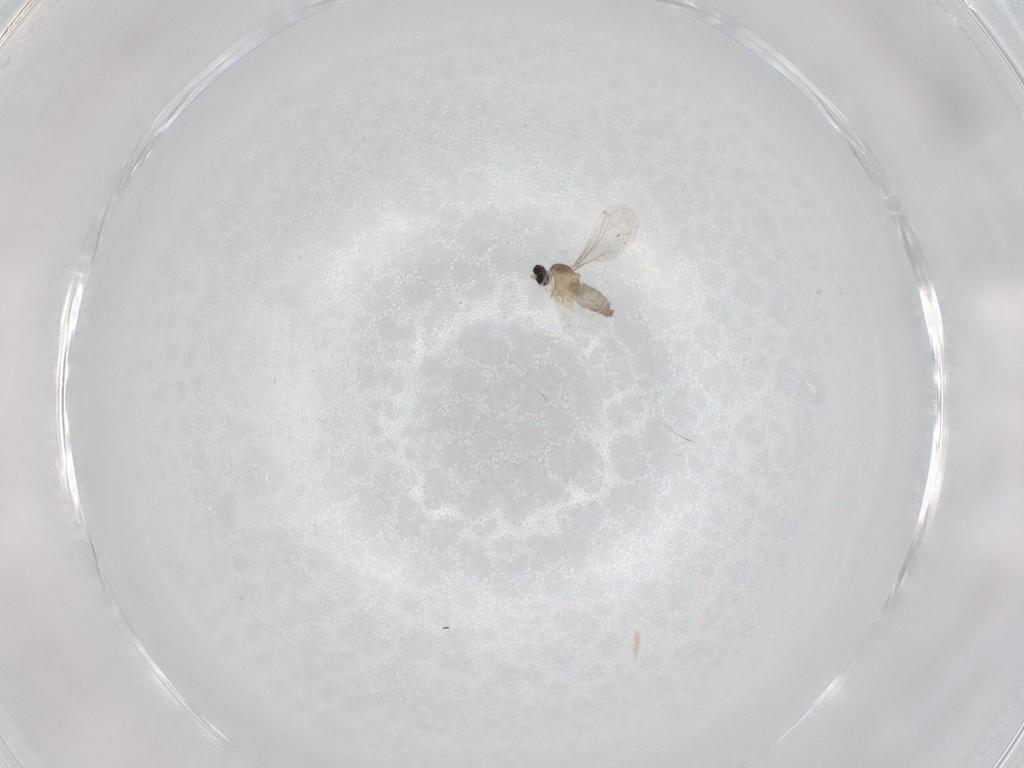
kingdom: Animalia
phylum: Arthropoda
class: Insecta
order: Diptera
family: Cecidomyiidae
